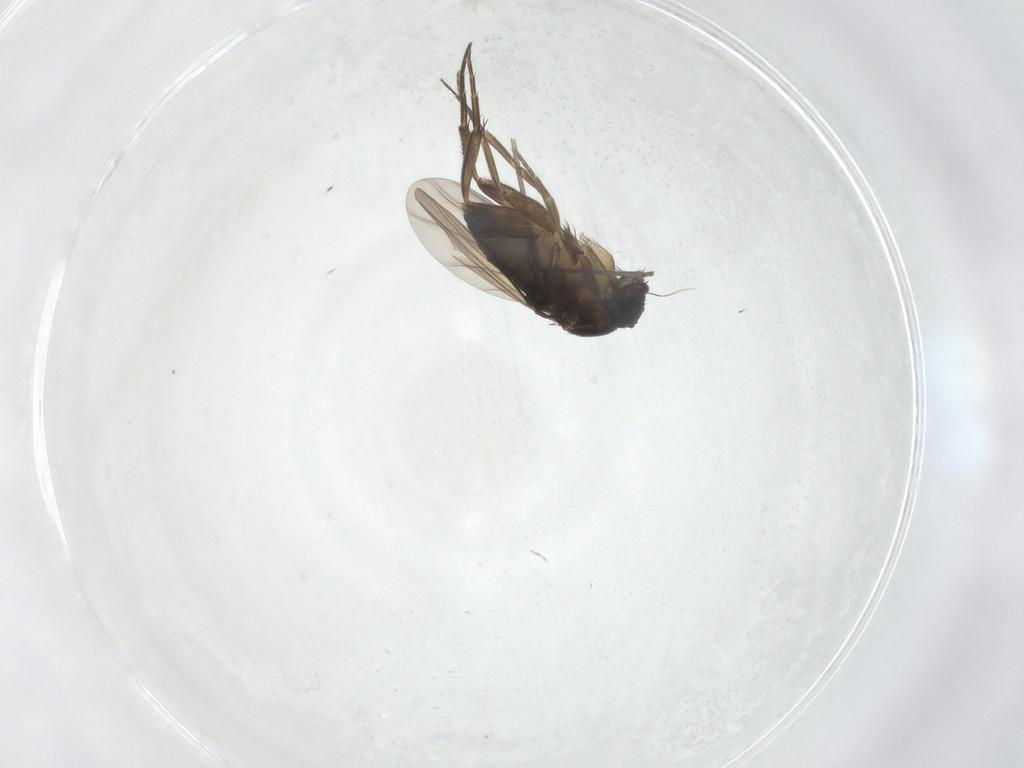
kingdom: Animalia
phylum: Arthropoda
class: Insecta
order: Diptera
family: Phoridae
